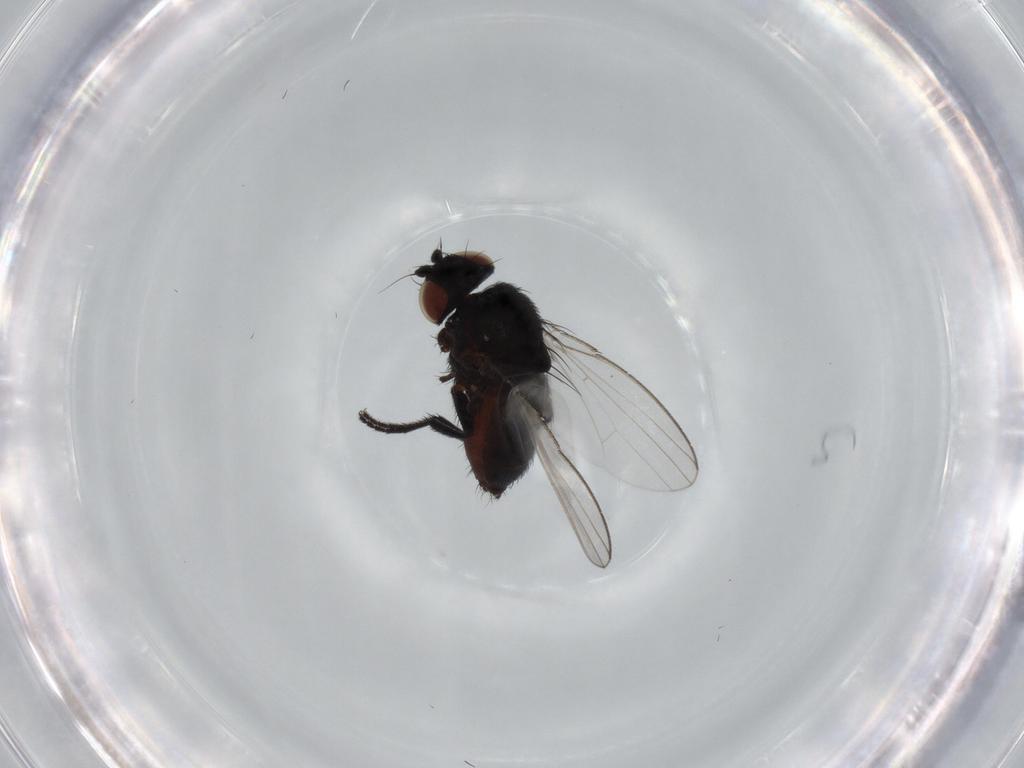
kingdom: Animalia
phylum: Arthropoda
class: Insecta
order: Diptera
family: Milichiidae
